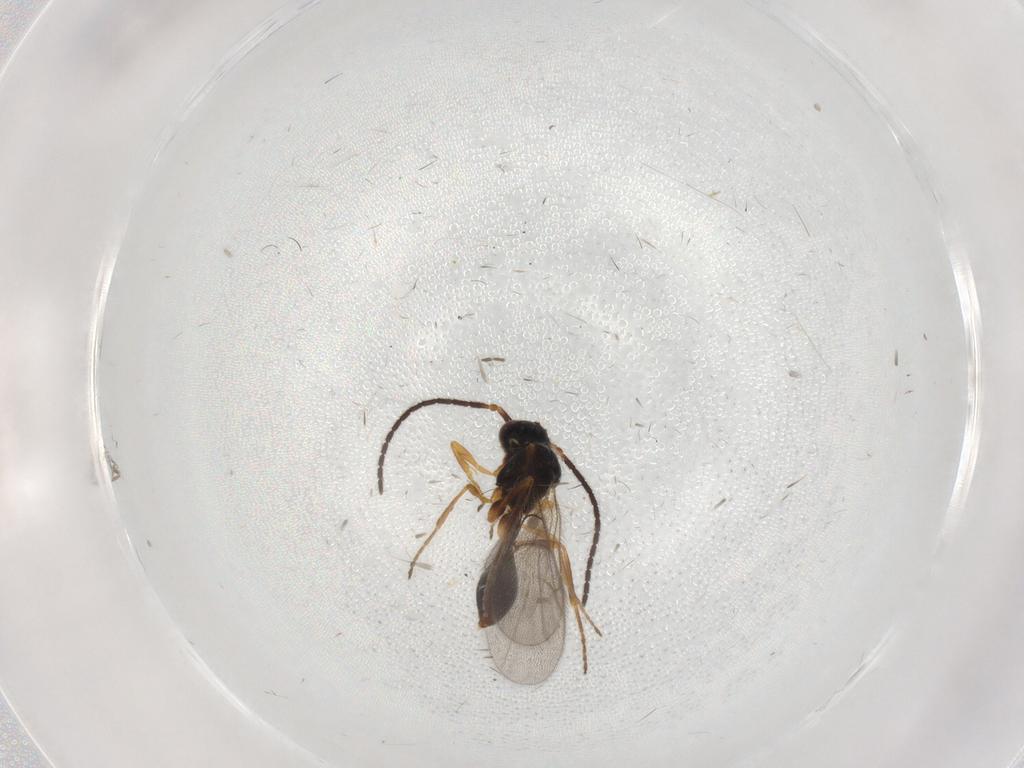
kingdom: Animalia
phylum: Arthropoda
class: Insecta
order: Hymenoptera
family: Diapriidae
